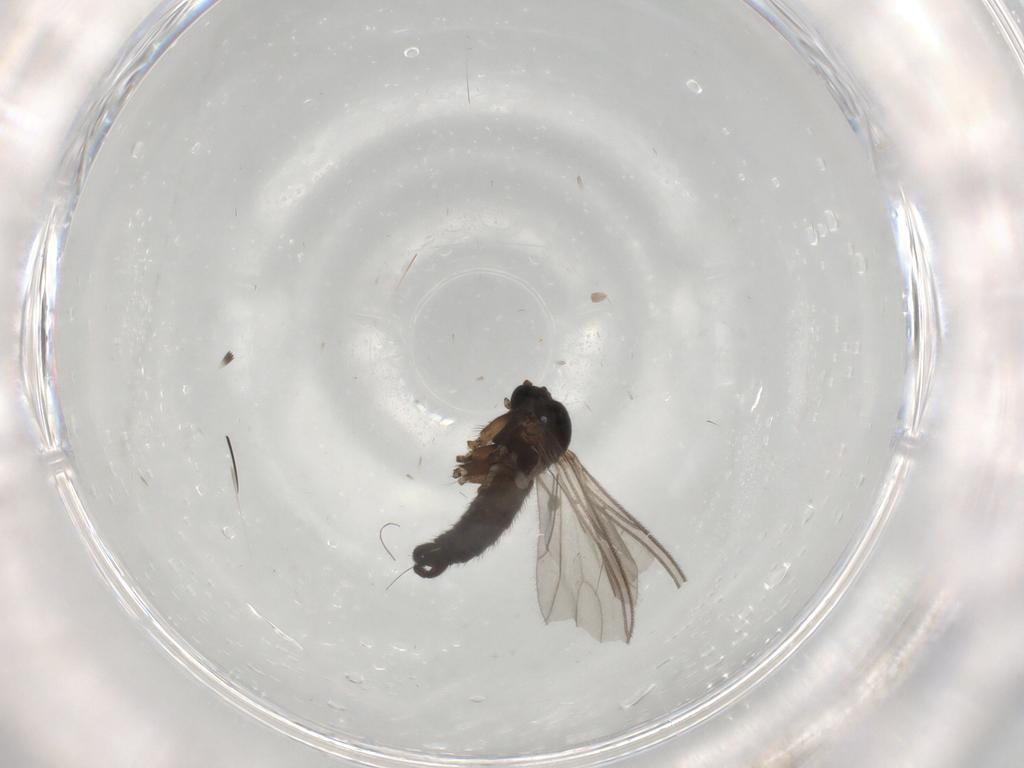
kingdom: Animalia
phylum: Arthropoda
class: Insecta
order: Diptera
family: Sciaridae
